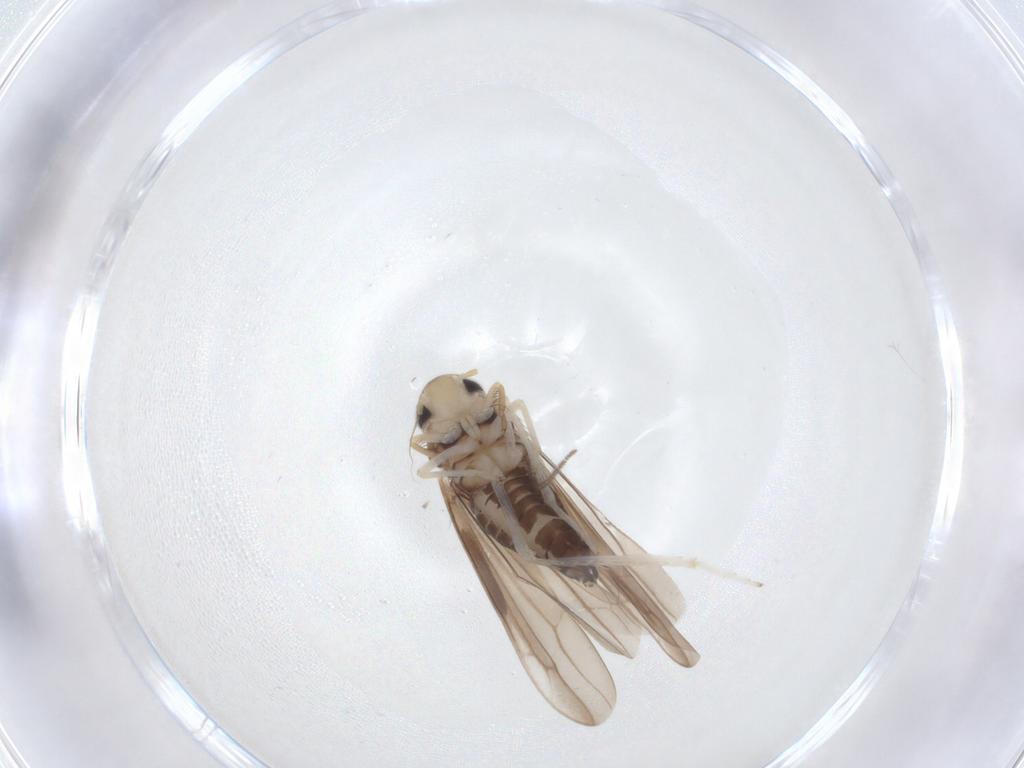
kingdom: Animalia
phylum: Arthropoda
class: Insecta
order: Hemiptera
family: Cicadellidae
